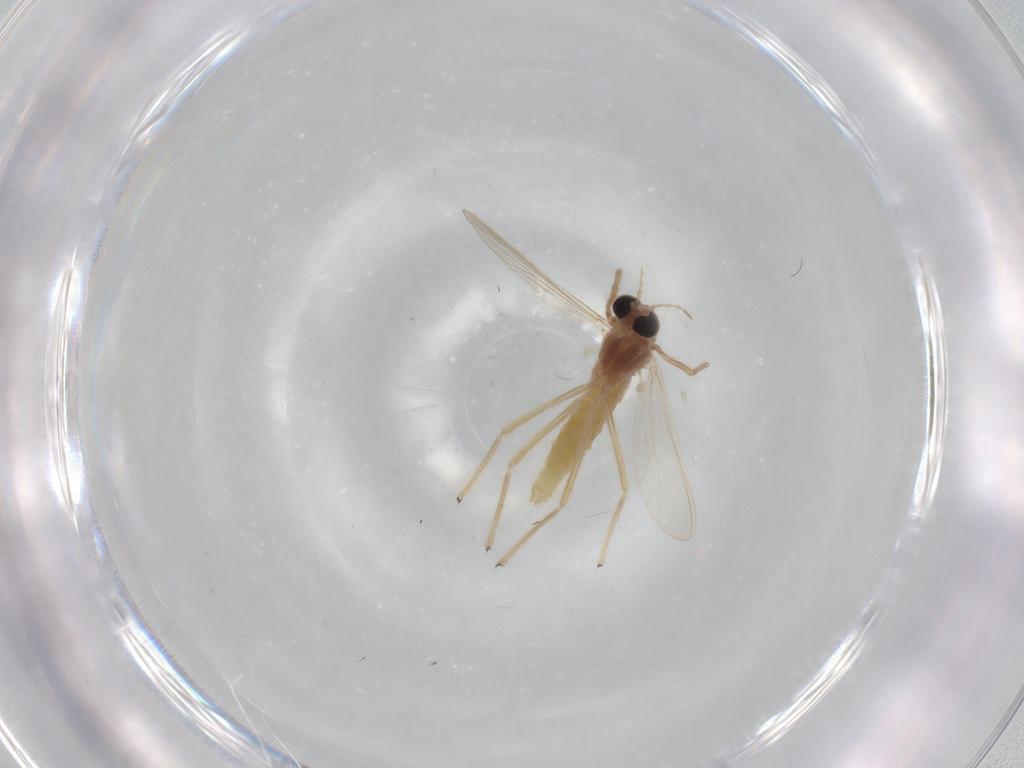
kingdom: Animalia
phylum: Arthropoda
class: Insecta
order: Diptera
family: Chironomidae
